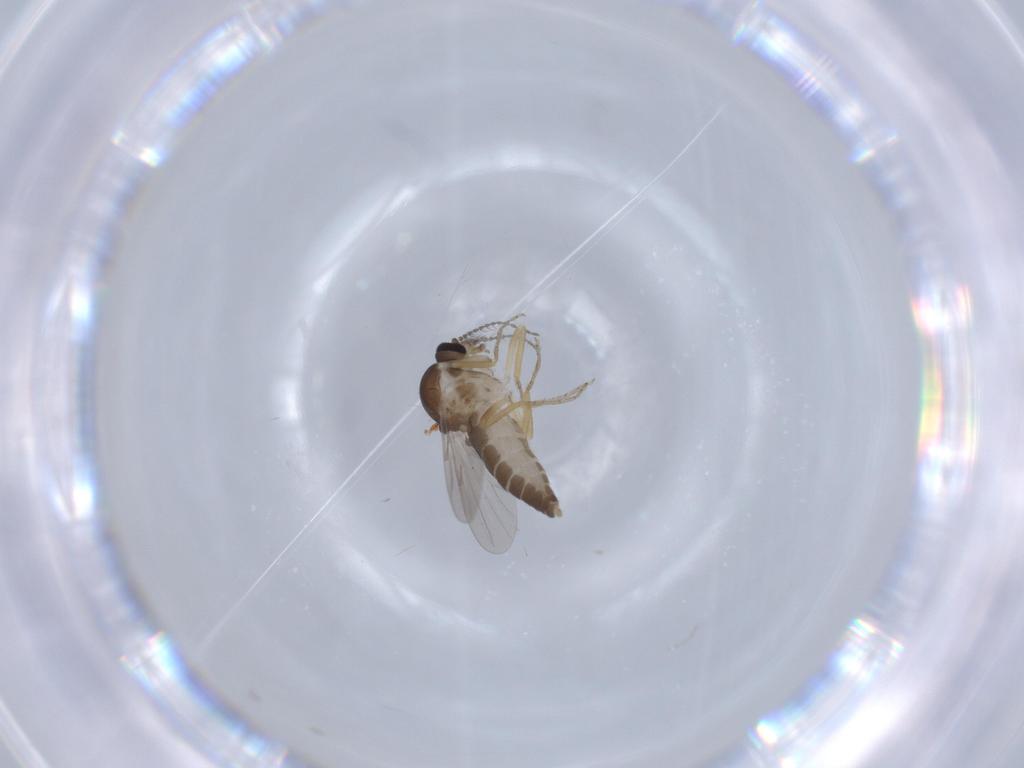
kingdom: Animalia
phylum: Arthropoda
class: Insecta
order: Diptera
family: Ceratopogonidae
